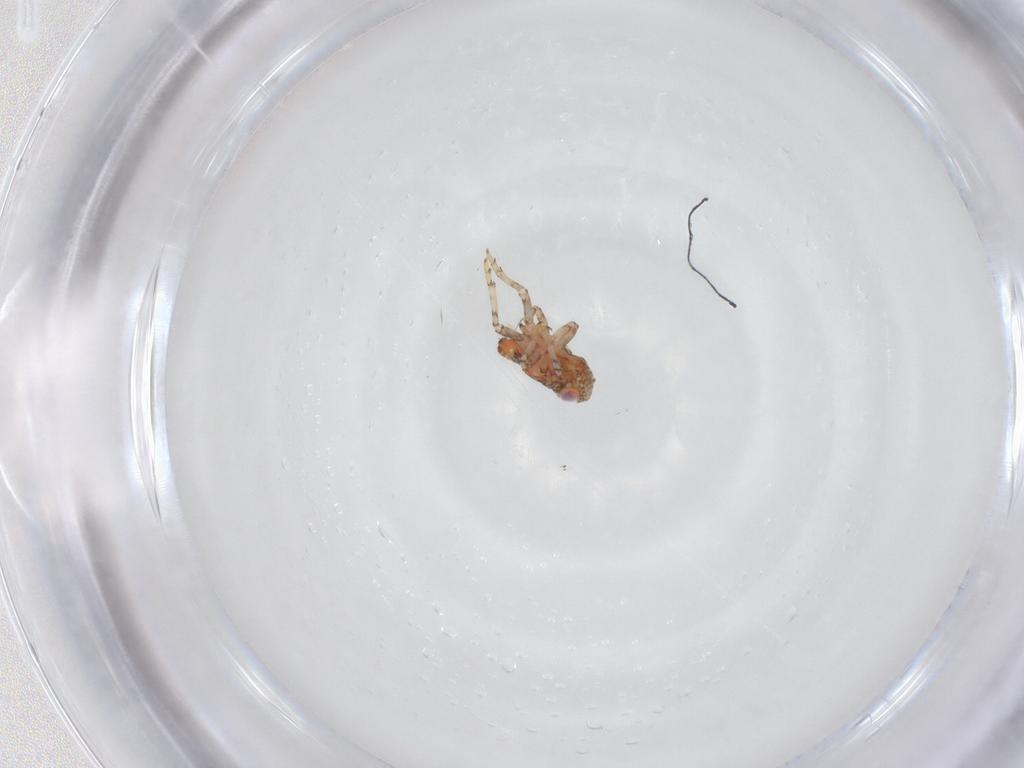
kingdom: Animalia
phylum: Arthropoda
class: Insecta
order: Hemiptera
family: Issidae
